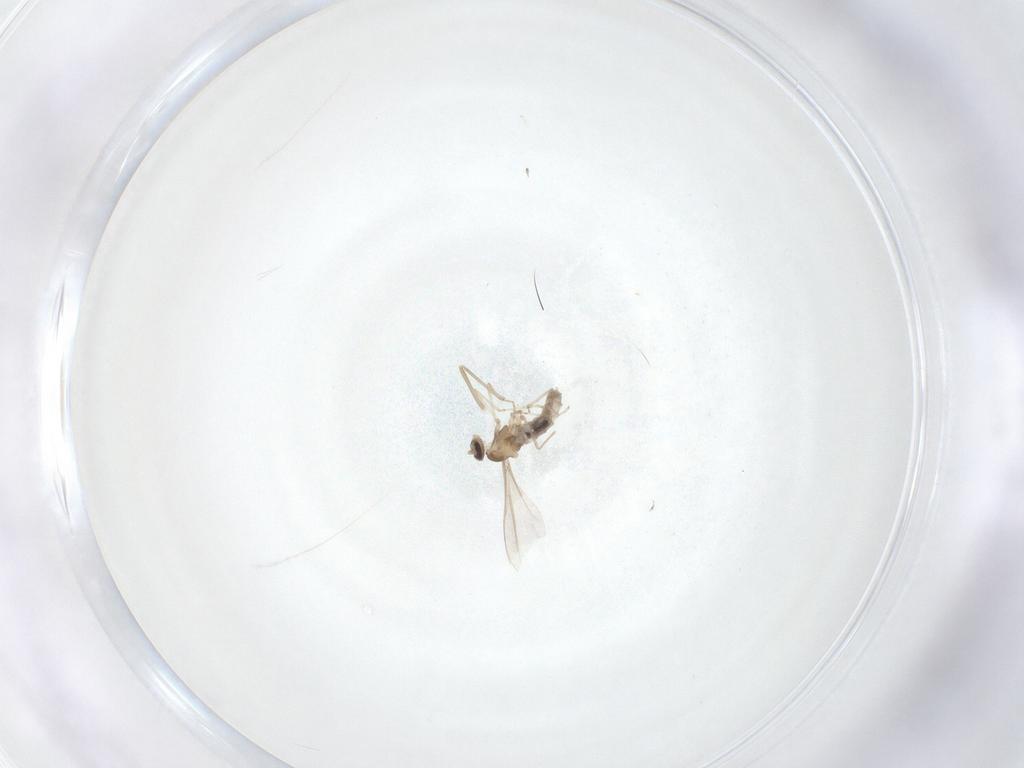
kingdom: Animalia
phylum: Arthropoda
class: Insecta
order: Diptera
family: Cecidomyiidae
